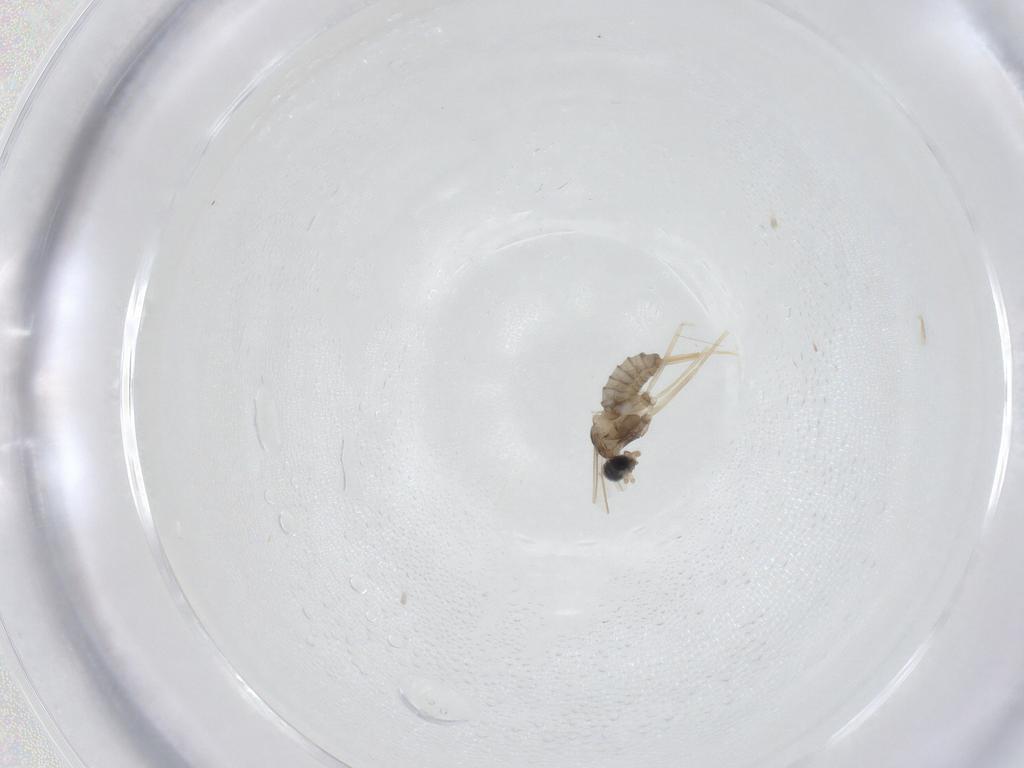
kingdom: Animalia
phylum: Arthropoda
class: Insecta
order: Diptera
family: Cecidomyiidae
